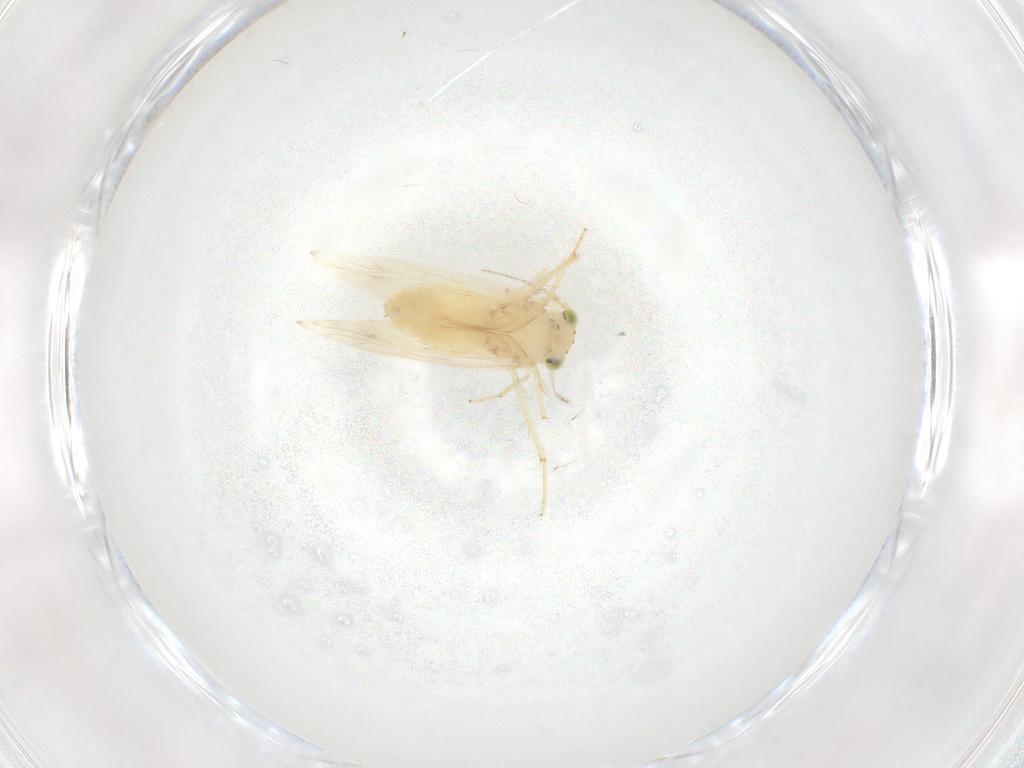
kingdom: Animalia
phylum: Arthropoda
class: Insecta
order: Psocodea
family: Lepidopsocidae
